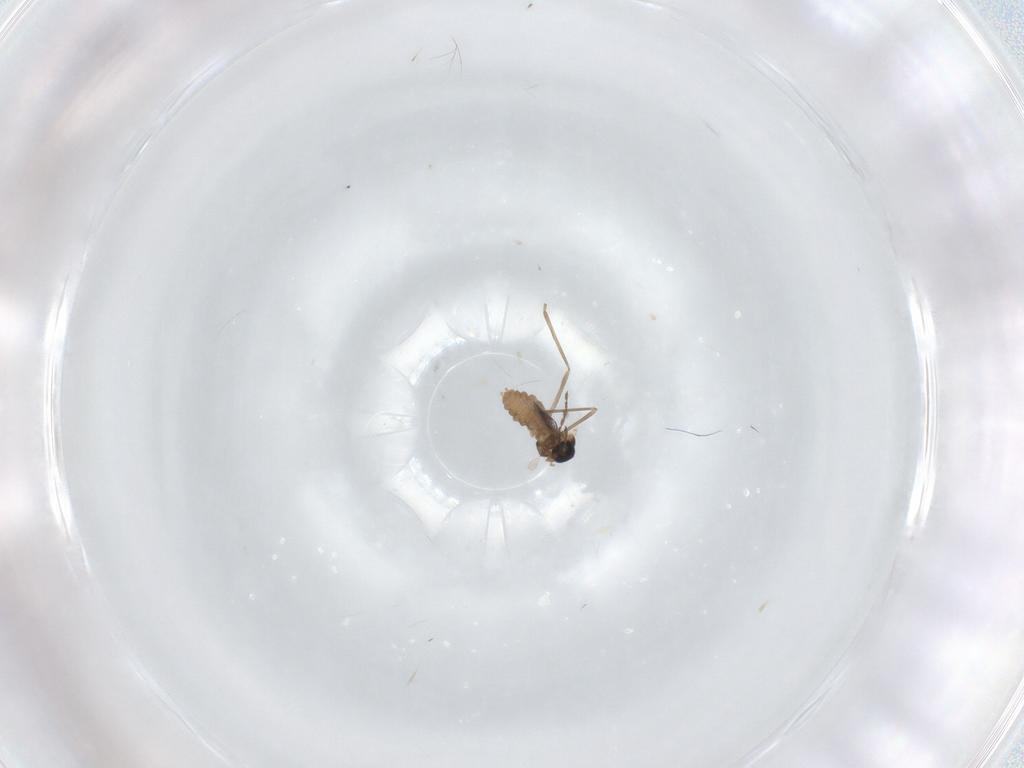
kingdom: Animalia
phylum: Arthropoda
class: Insecta
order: Diptera
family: Cecidomyiidae
